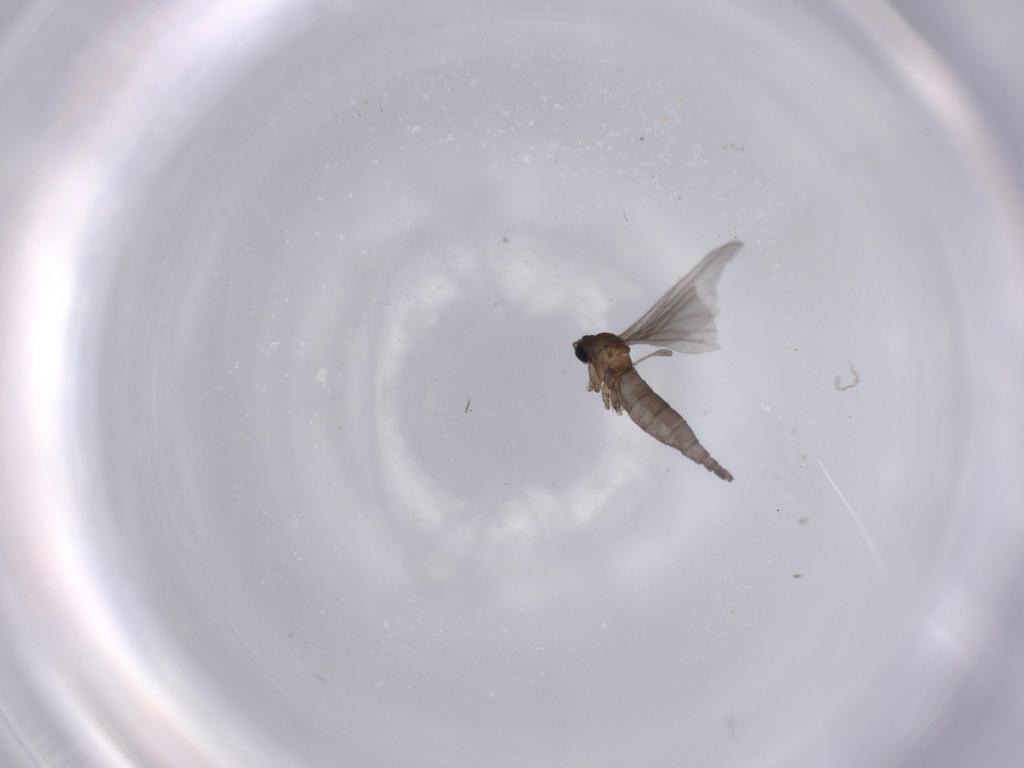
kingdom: Animalia
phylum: Arthropoda
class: Insecta
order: Diptera
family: Sciaridae
